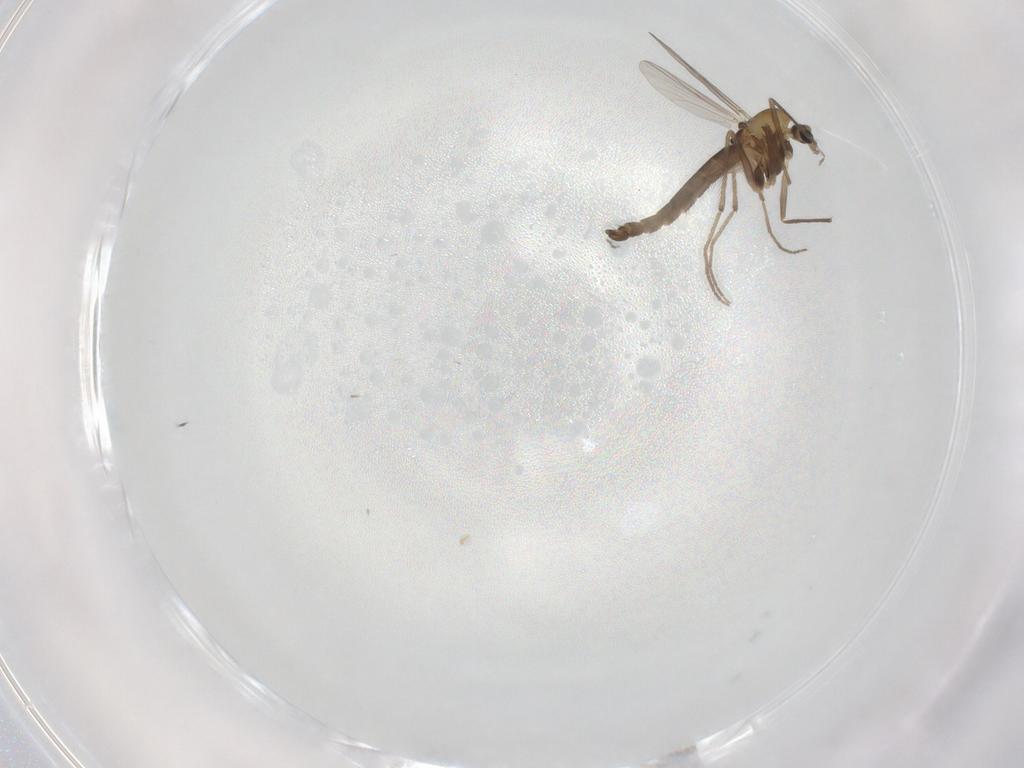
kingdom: Animalia
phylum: Arthropoda
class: Insecta
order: Diptera
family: Chironomidae
